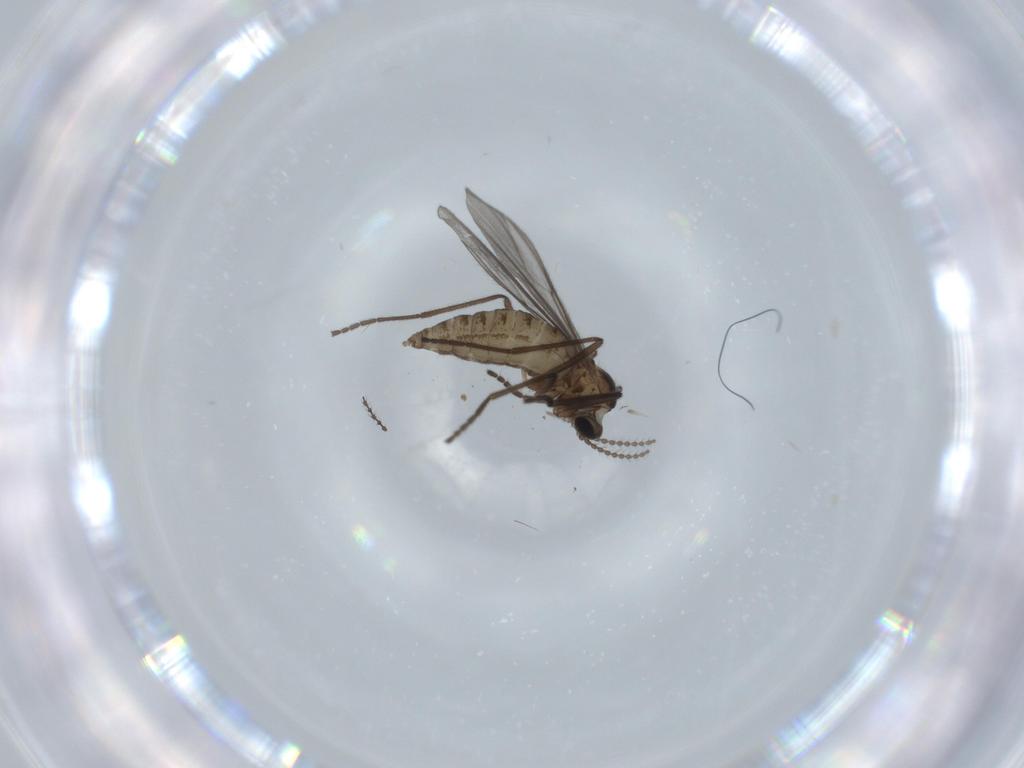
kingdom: Animalia
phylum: Arthropoda
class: Insecta
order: Diptera
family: Cecidomyiidae
